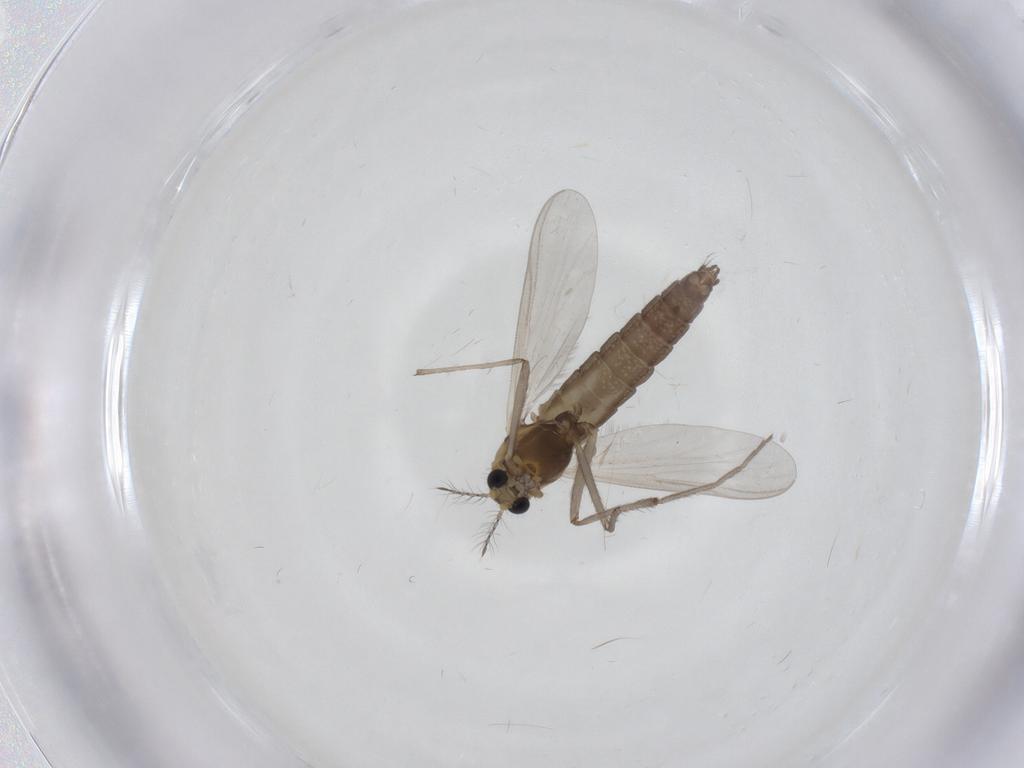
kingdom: Animalia
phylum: Arthropoda
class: Insecta
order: Diptera
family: Chironomidae
